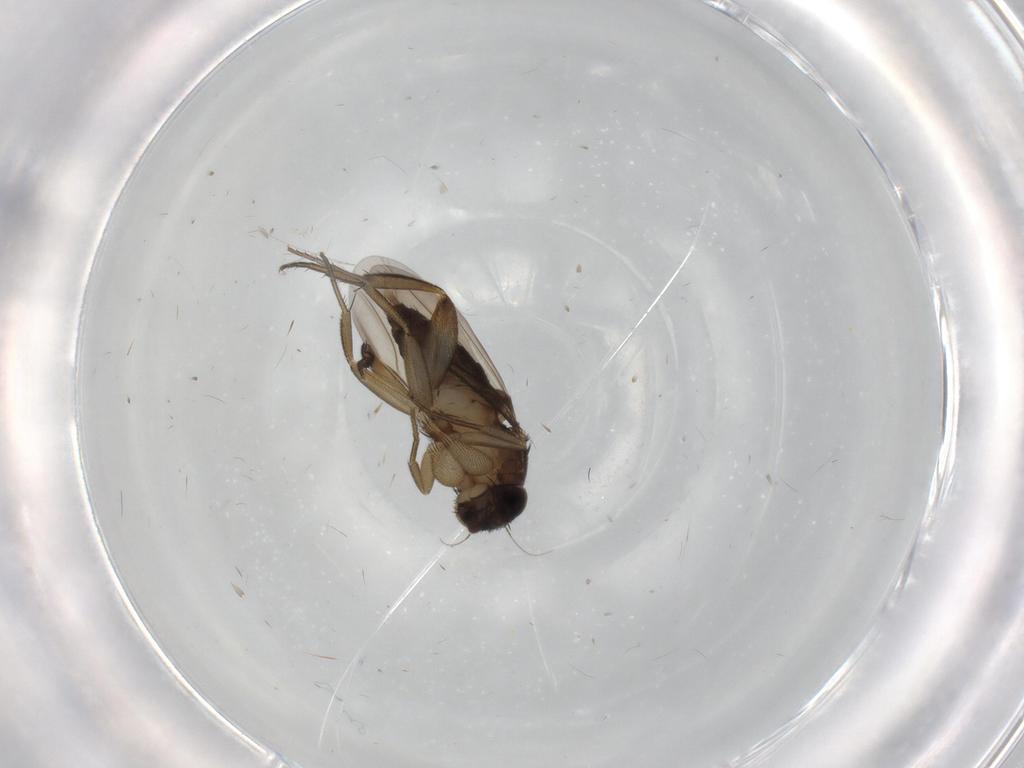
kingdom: Animalia
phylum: Arthropoda
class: Insecta
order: Diptera
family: Phoridae
